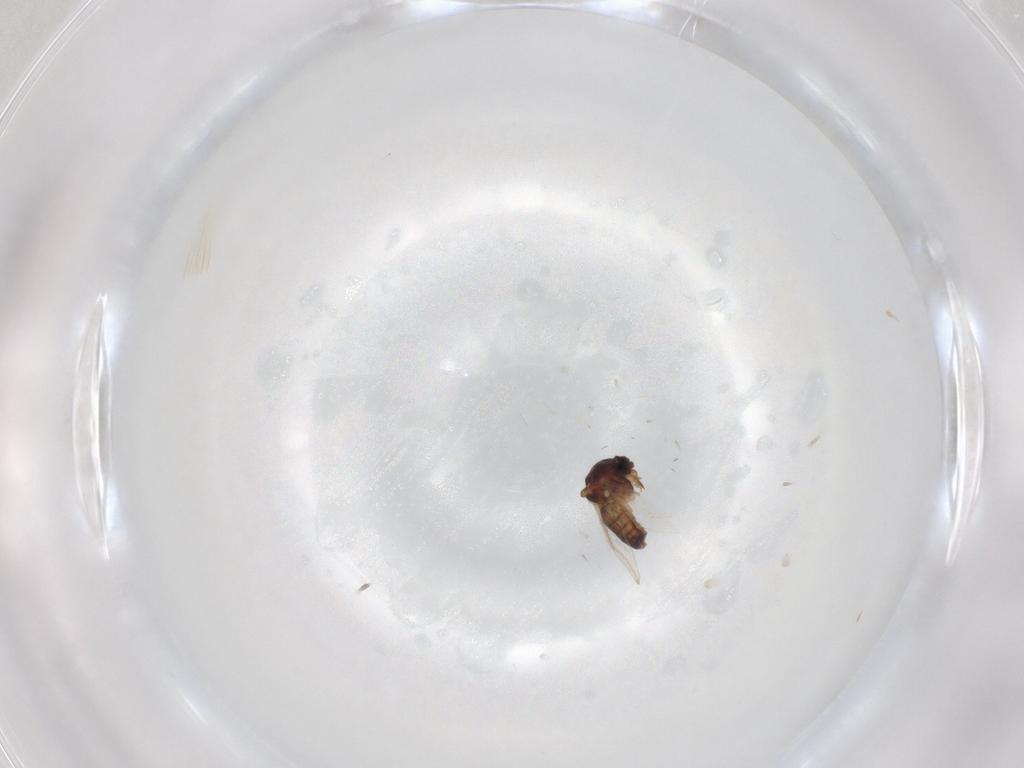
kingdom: Animalia
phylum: Arthropoda
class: Insecta
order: Diptera
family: Ceratopogonidae
